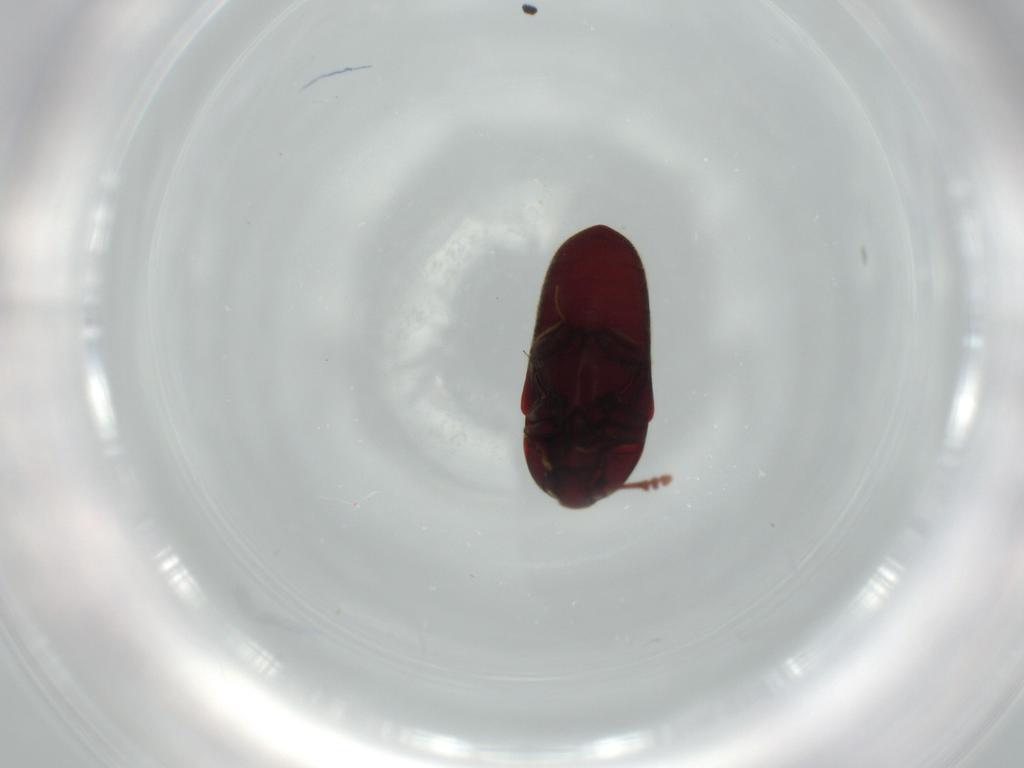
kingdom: Animalia
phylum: Arthropoda
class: Insecta
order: Coleoptera
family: Throscidae
